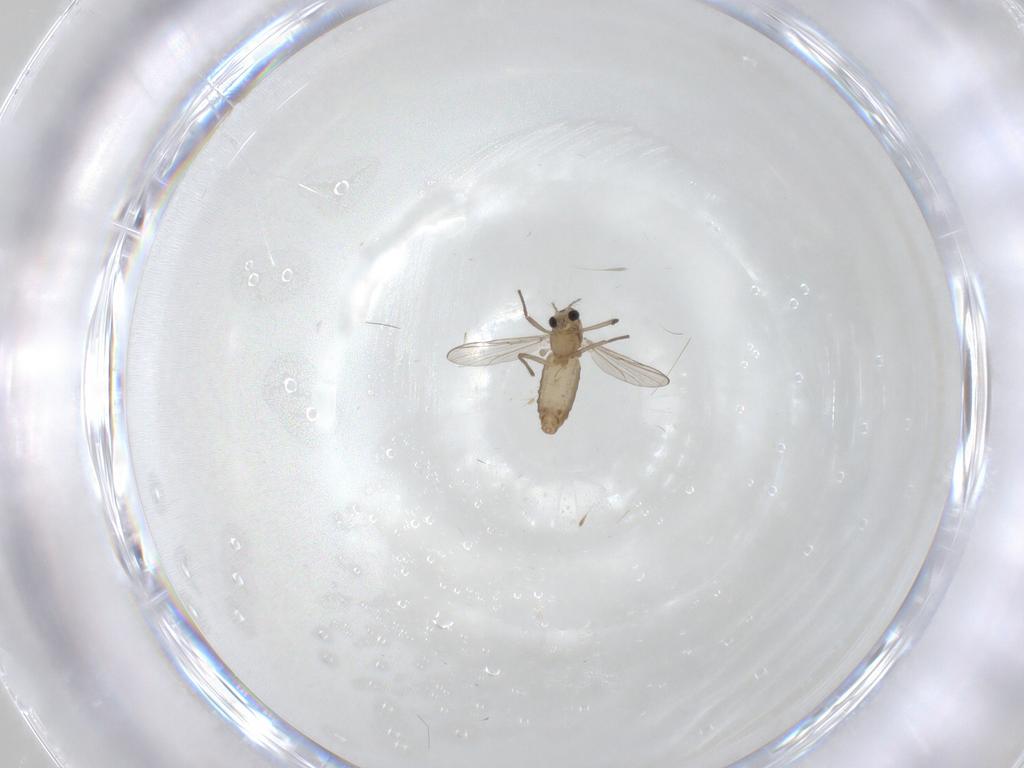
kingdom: Animalia
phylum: Arthropoda
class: Insecta
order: Diptera
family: Chironomidae
